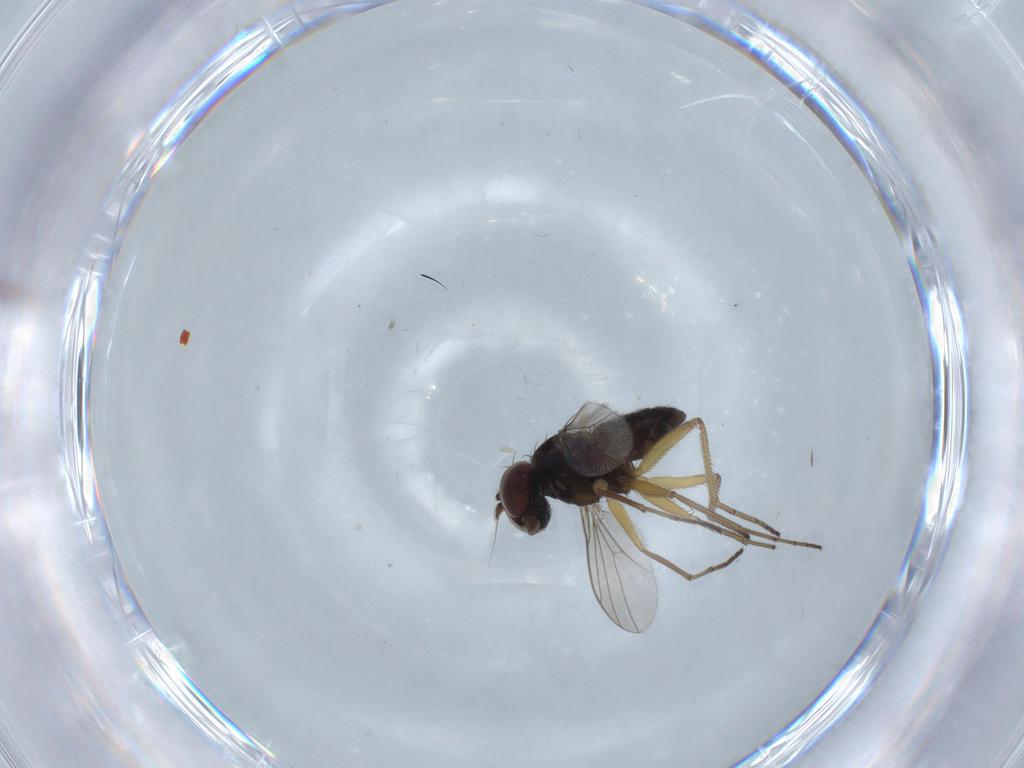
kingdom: Animalia
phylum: Arthropoda
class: Insecta
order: Diptera
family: Dolichopodidae
